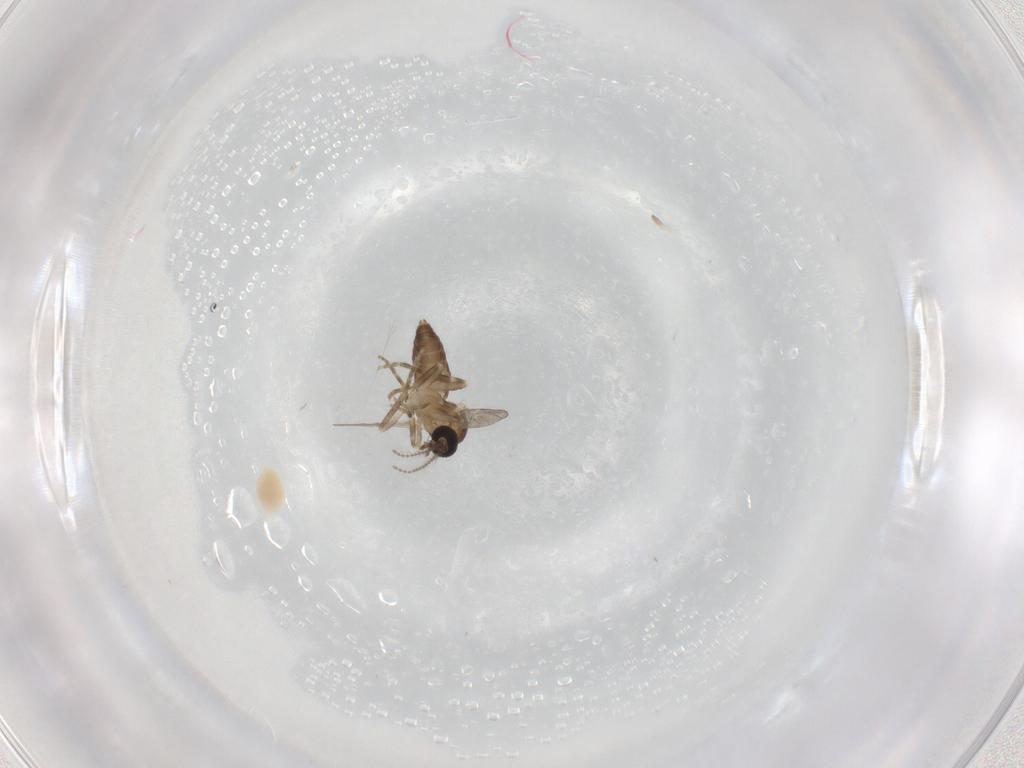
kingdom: Animalia
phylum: Arthropoda
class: Insecta
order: Diptera
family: Ceratopogonidae
